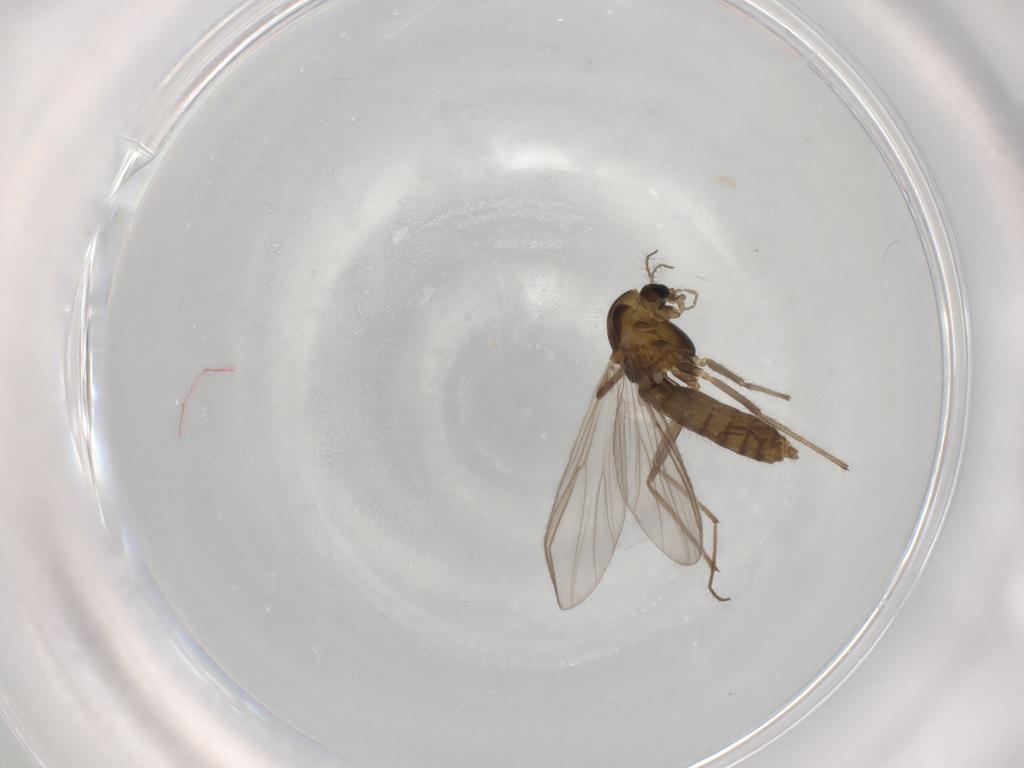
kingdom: Animalia
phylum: Arthropoda
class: Insecta
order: Diptera
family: Chironomidae
